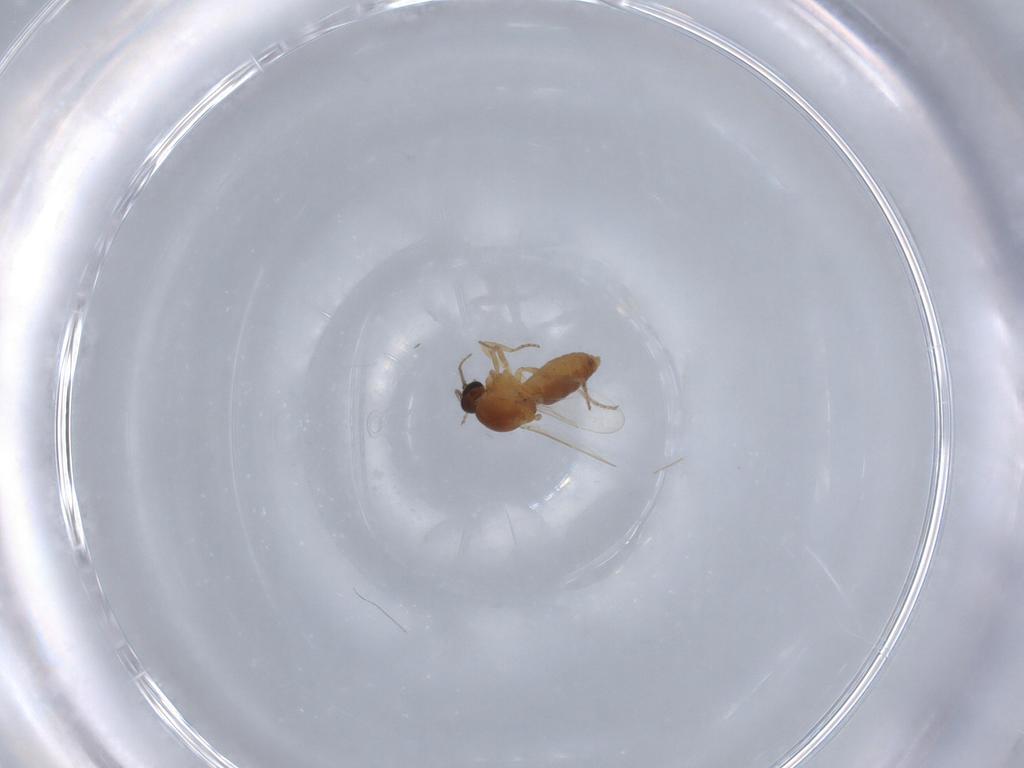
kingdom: Animalia
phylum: Arthropoda
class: Insecta
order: Diptera
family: Ceratopogonidae
